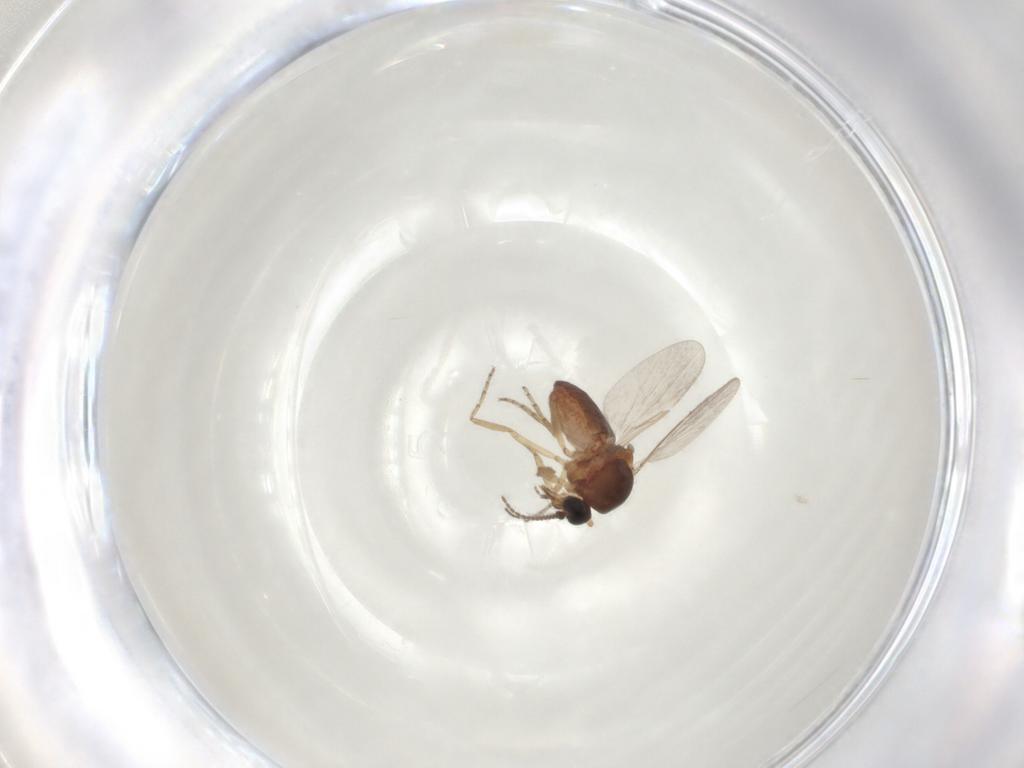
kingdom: Animalia
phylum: Arthropoda
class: Insecta
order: Diptera
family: Ceratopogonidae
